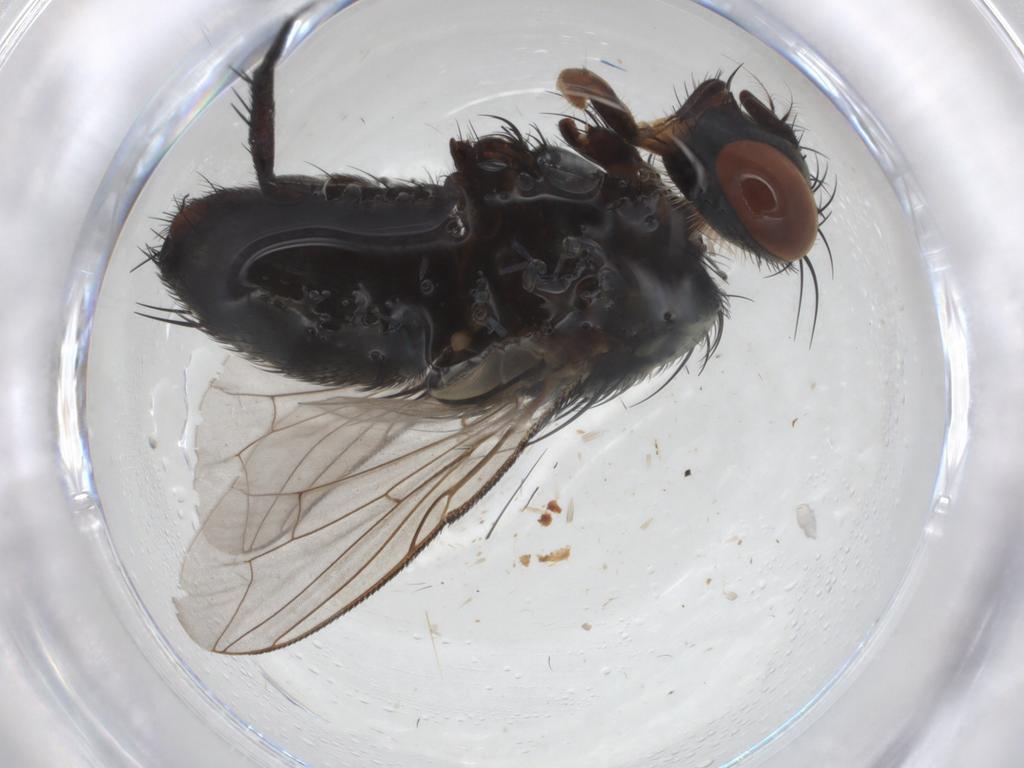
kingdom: Animalia
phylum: Arthropoda
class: Insecta
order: Diptera
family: Sarcophagidae
